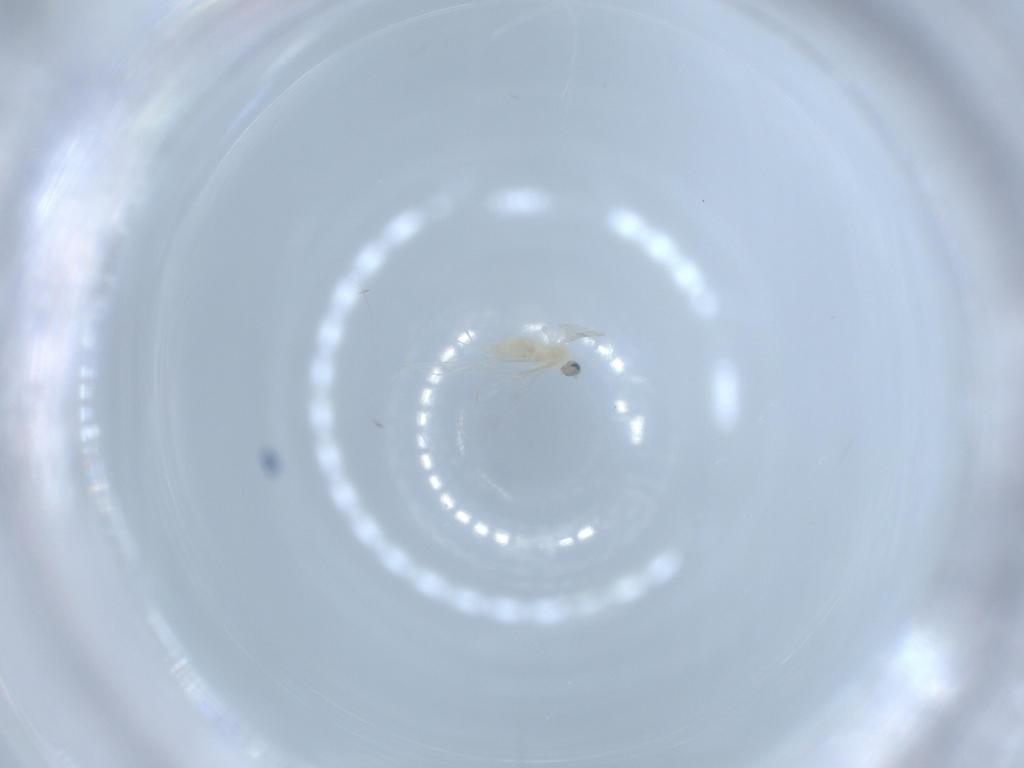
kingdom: Animalia
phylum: Arthropoda
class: Insecta
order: Diptera
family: Cecidomyiidae
